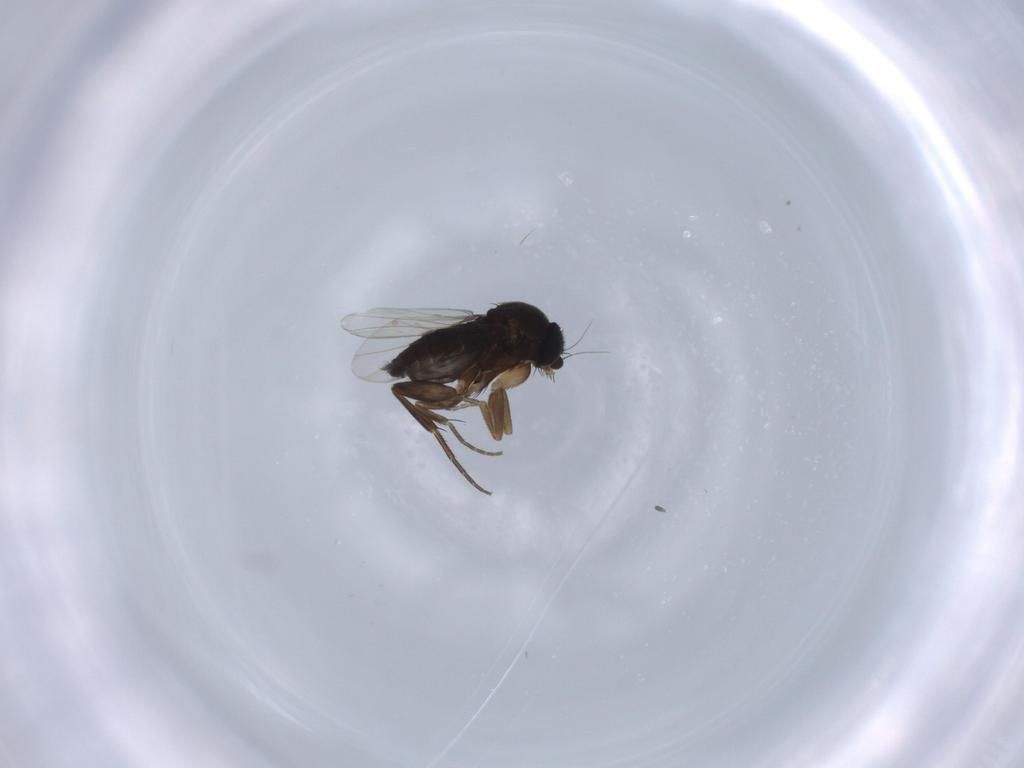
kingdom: Animalia
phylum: Arthropoda
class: Insecta
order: Diptera
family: Phoridae
